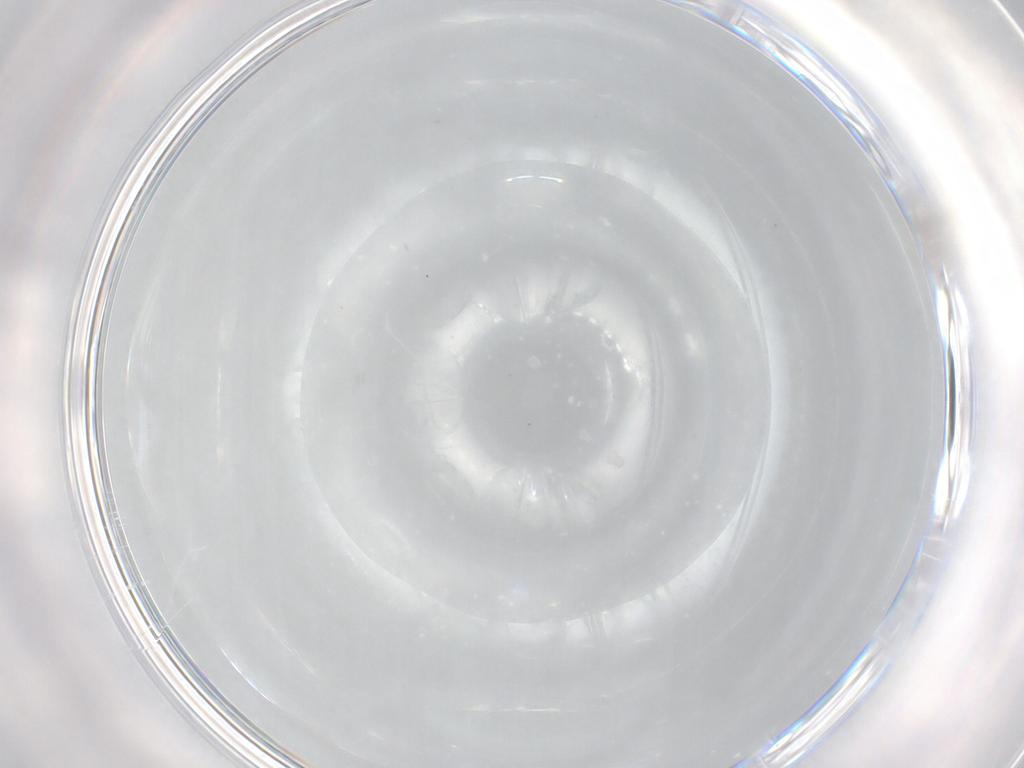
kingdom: Animalia
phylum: Arthropoda
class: Insecta
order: Hymenoptera
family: Mymaridae
